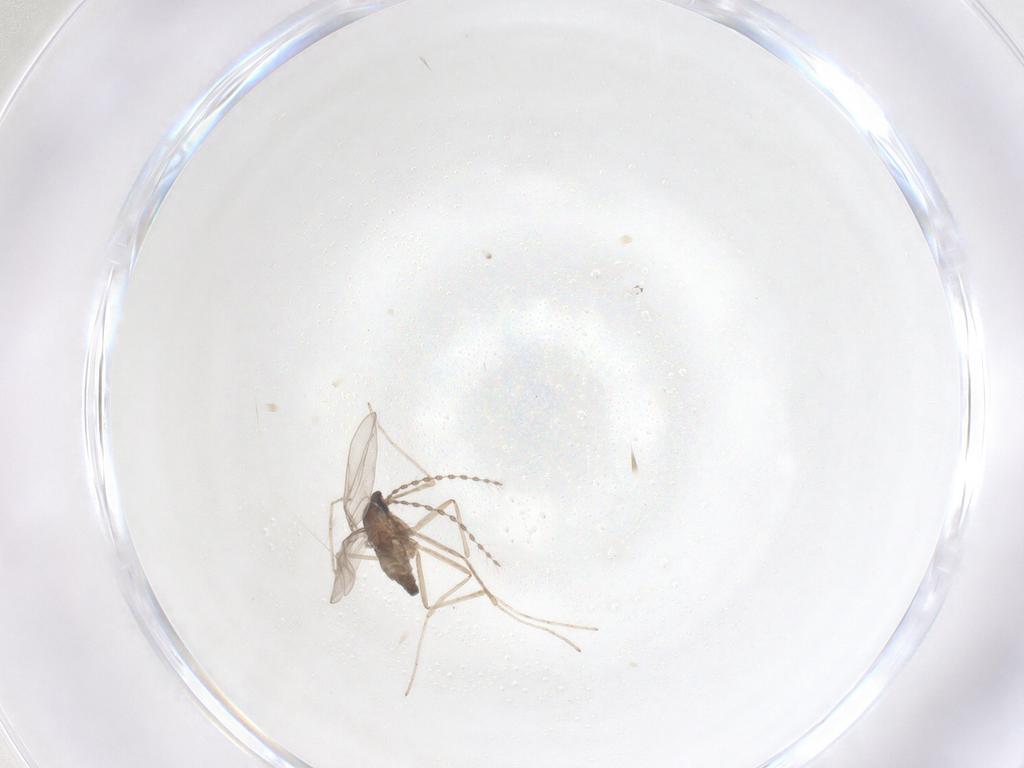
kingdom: Animalia
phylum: Arthropoda
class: Insecta
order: Diptera
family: Cecidomyiidae
